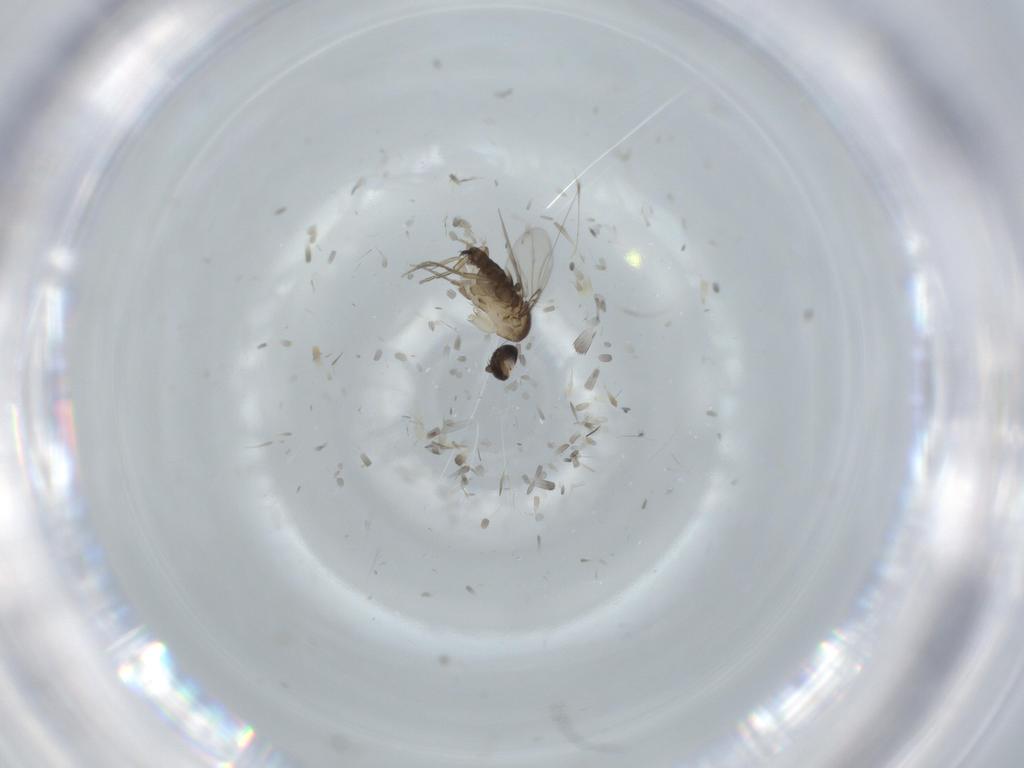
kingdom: Animalia
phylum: Arthropoda
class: Insecta
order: Diptera
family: Phoridae
